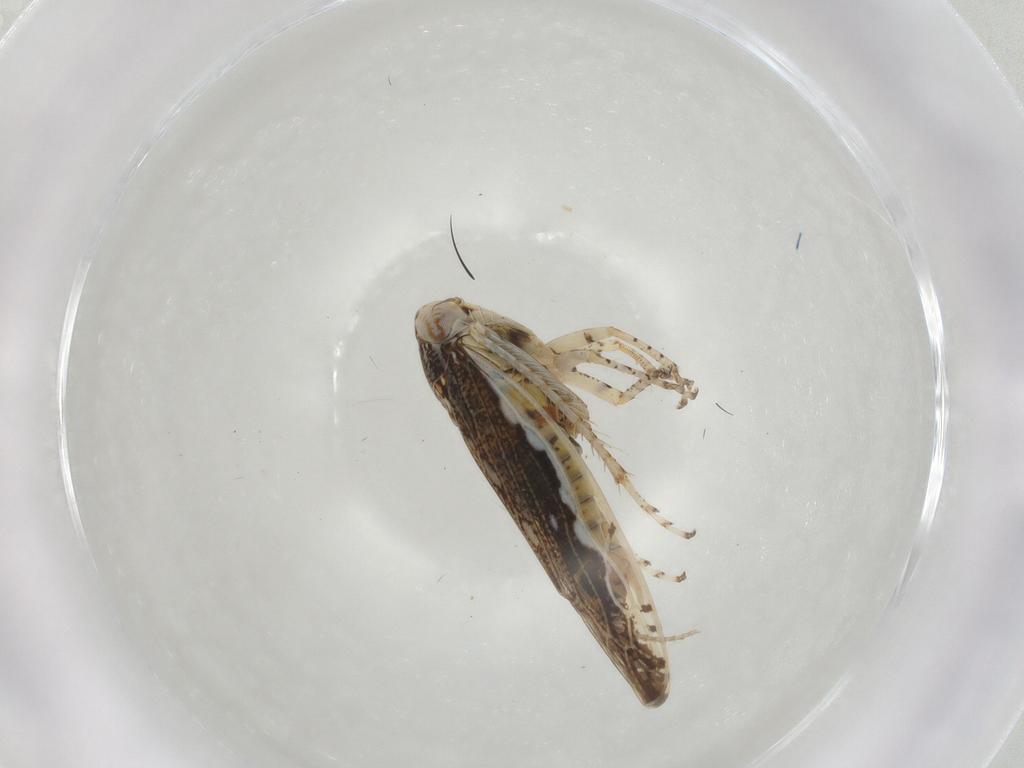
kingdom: Animalia
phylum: Arthropoda
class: Insecta
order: Hemiptera
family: Cicadellidae
